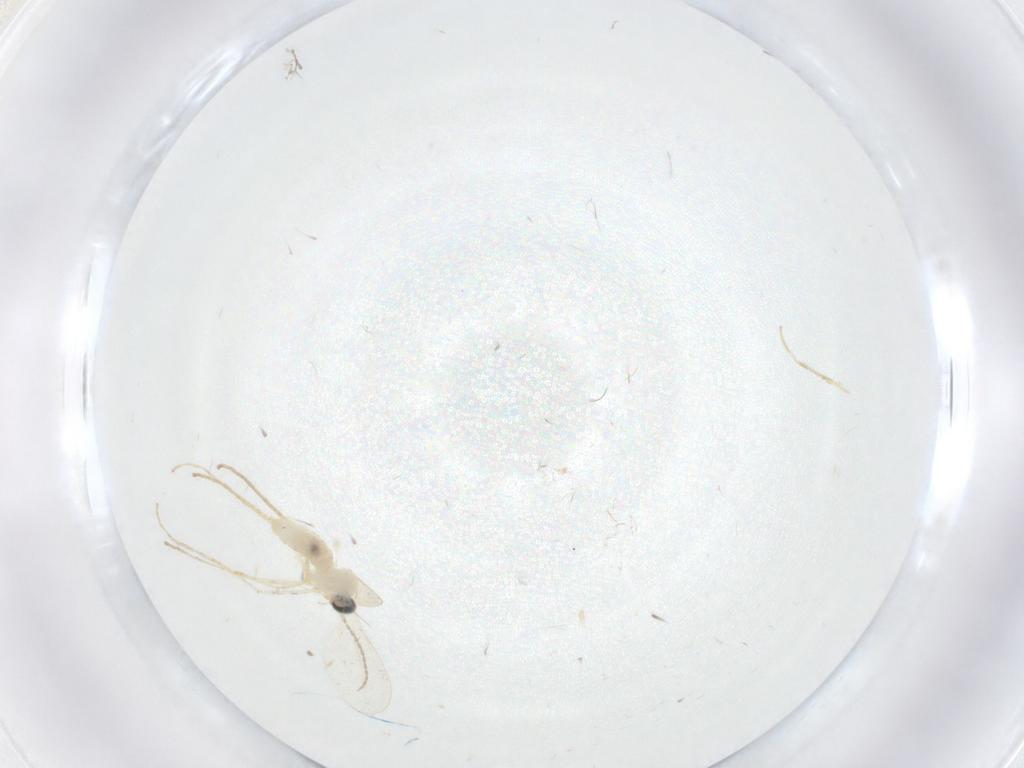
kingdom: Animalia
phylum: Arthropoda
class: Insecta
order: Diptera
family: Cecidomyiidae
